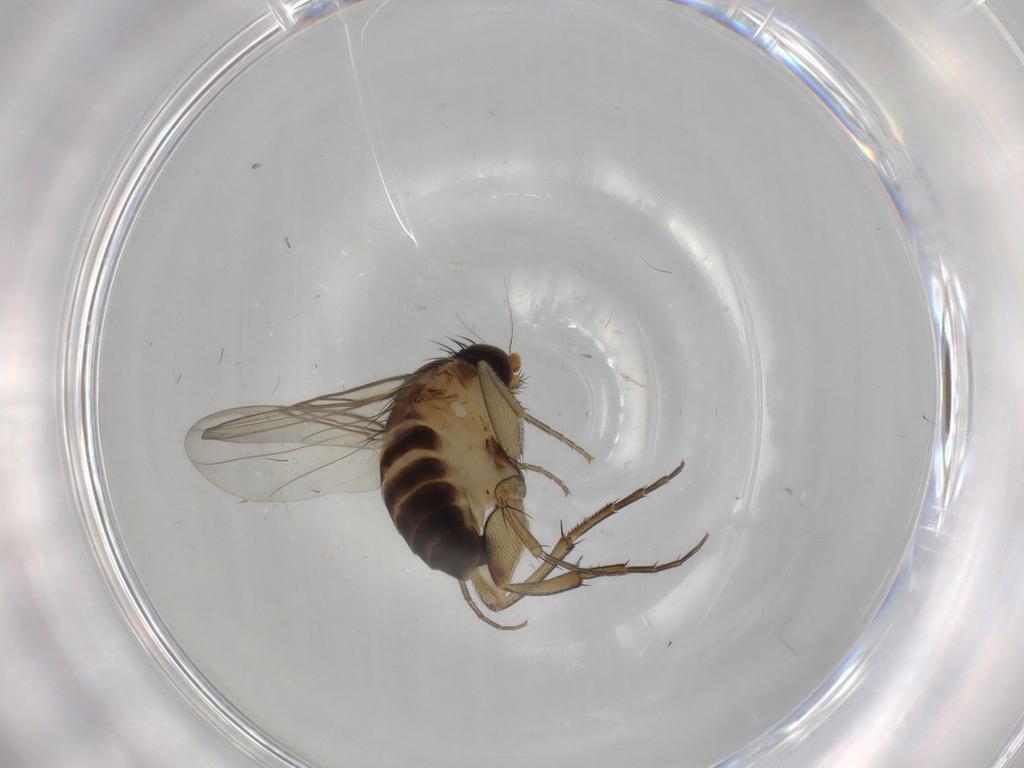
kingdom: Animalia
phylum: Arthropoda
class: Insecta
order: Diptera
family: Phoridae
